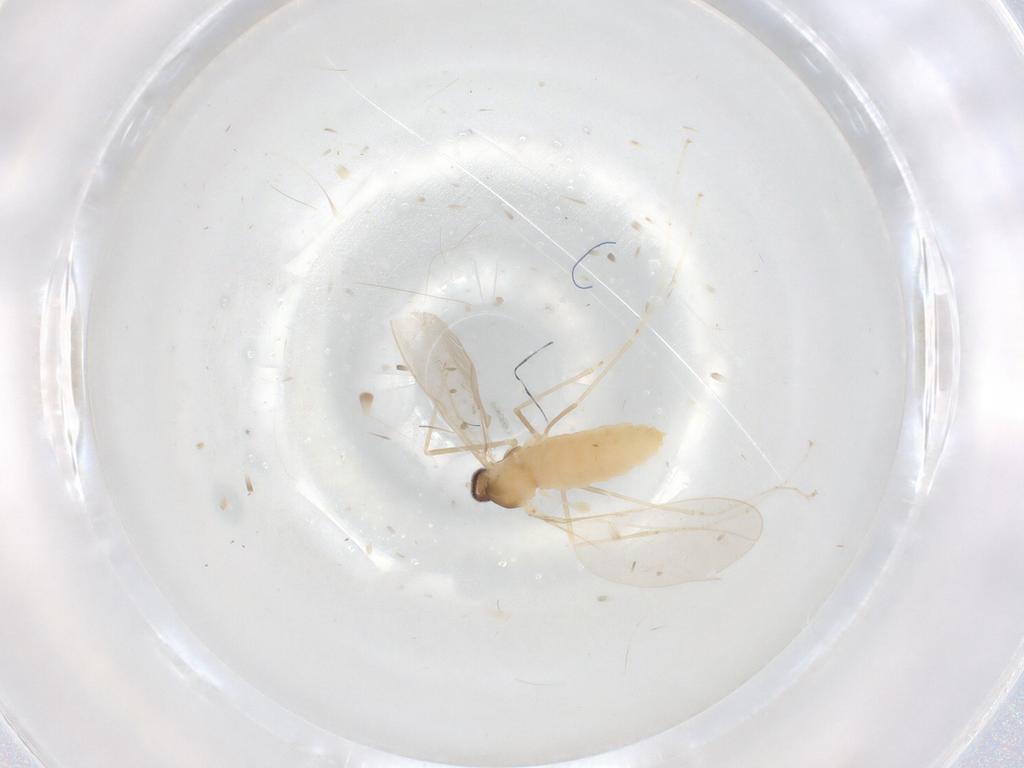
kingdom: Animalia
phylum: Arthropoda
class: Insecta
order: Diptera
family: Cecidomyiidae
